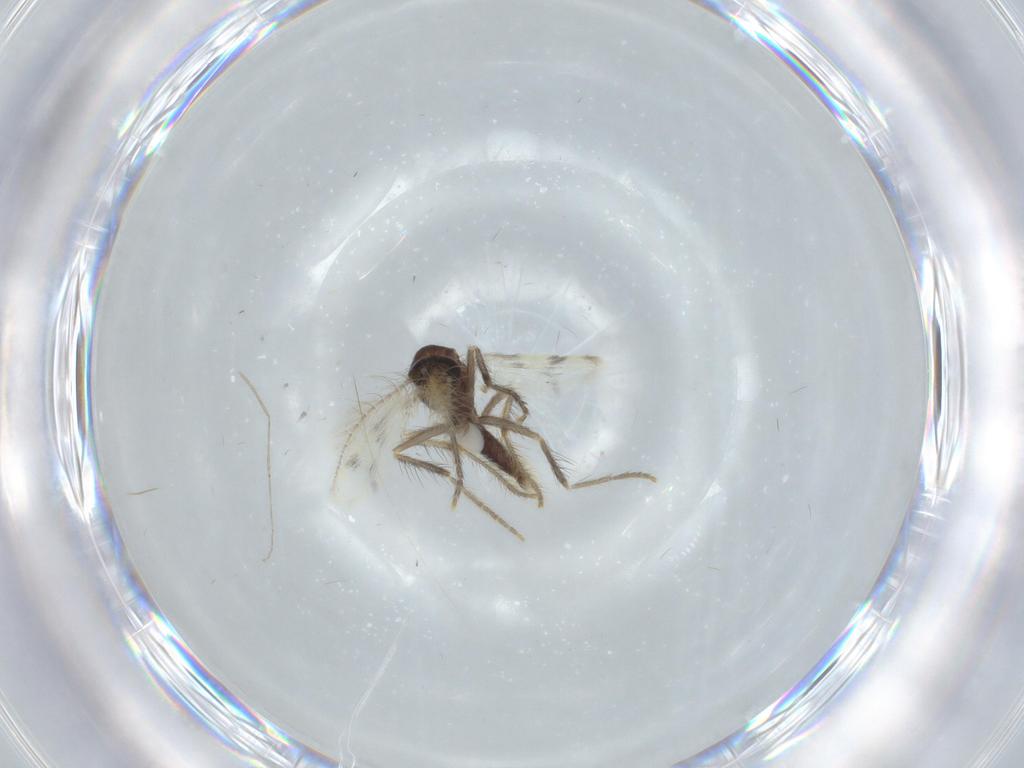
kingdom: Animalia
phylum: Arthropoda
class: Insecta
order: Diptera
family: Corethrellidae
